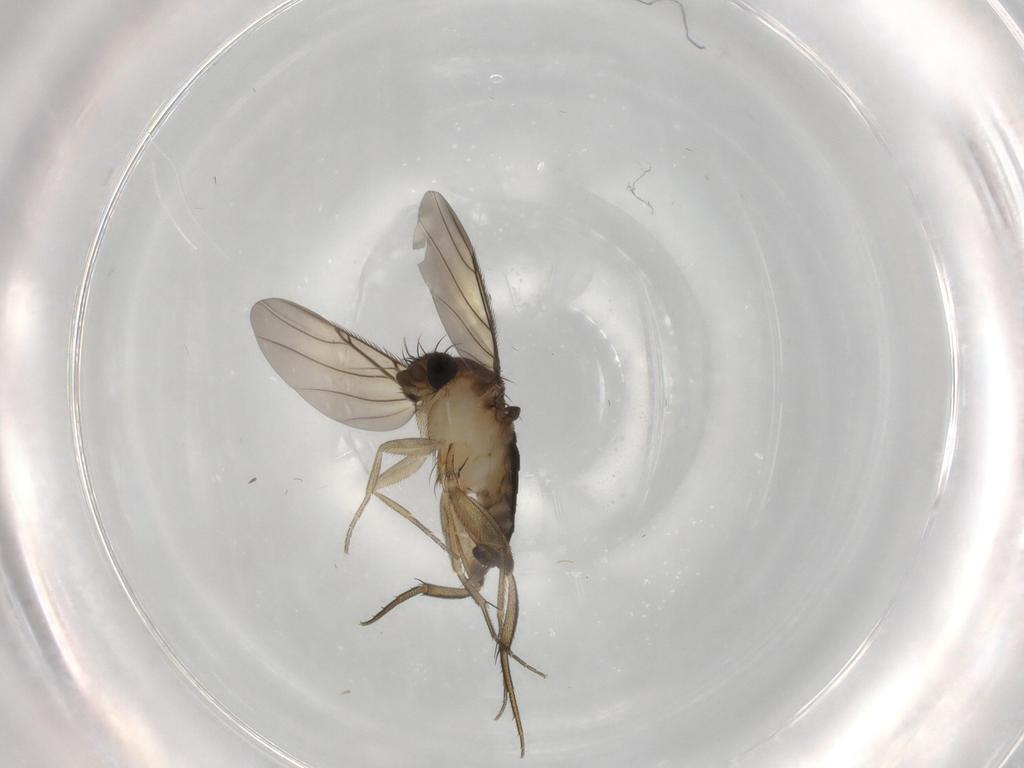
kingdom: Animalia
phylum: Arthropoda
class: Insecta
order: Diptera
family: Phoridae
